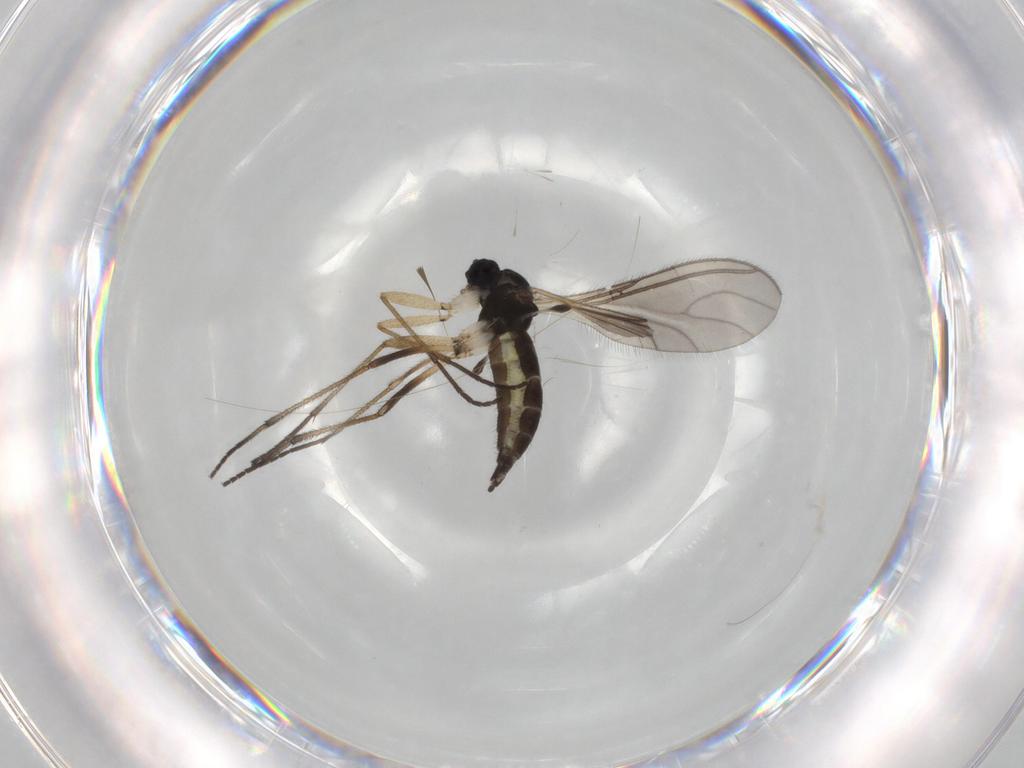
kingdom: Animalia
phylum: Arthropoda
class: Insecta
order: Diptera
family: Sciaridae
